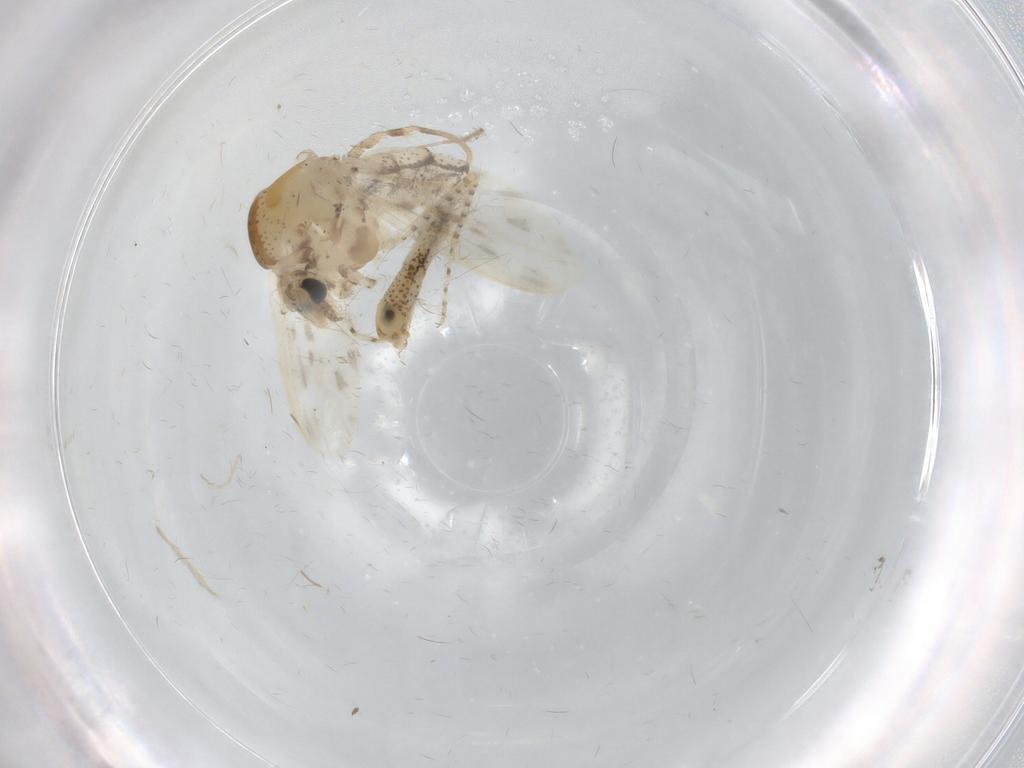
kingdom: Animalia
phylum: Arthropoda
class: Insecta
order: Diptera
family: Chaoboridae
